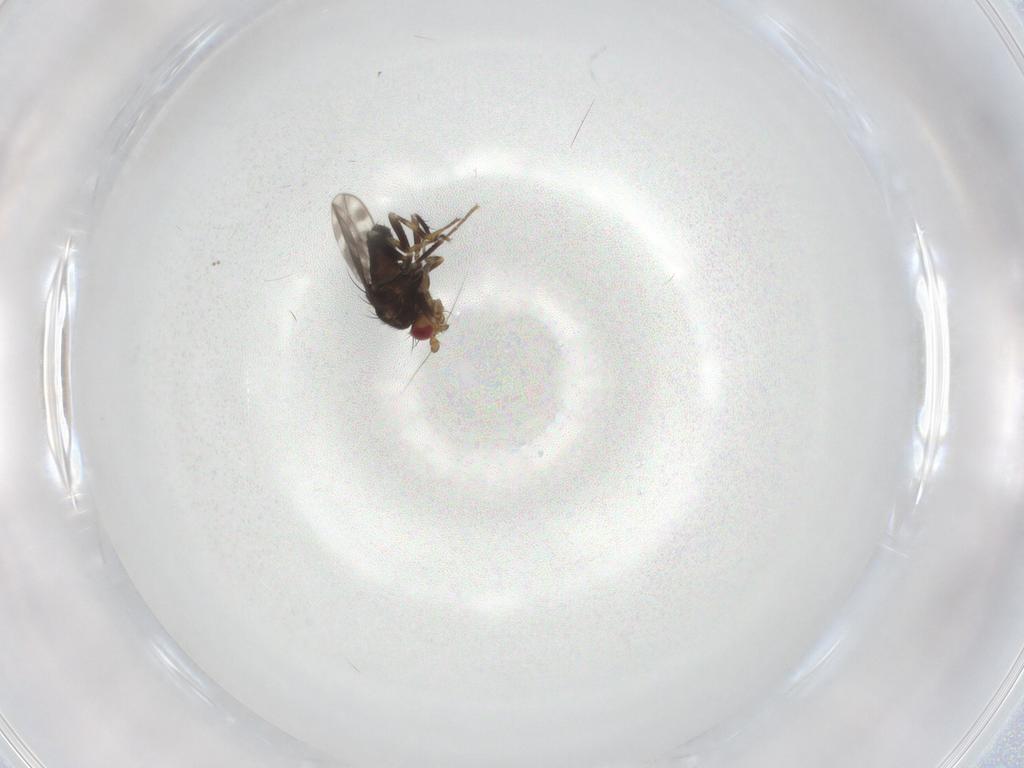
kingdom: Animalia
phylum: Arthropoda
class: Insecta
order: Diptera
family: Sphaeroceridae
